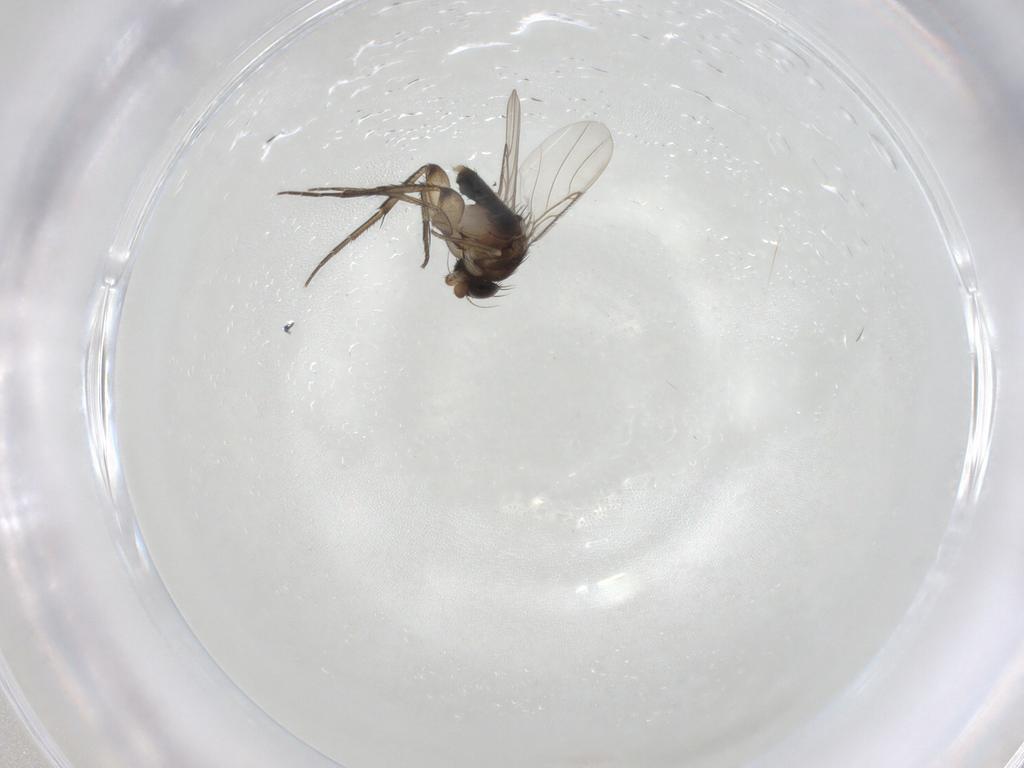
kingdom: Animalia
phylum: Arthropoda
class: Insecta
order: Diptera
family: Phoridae
